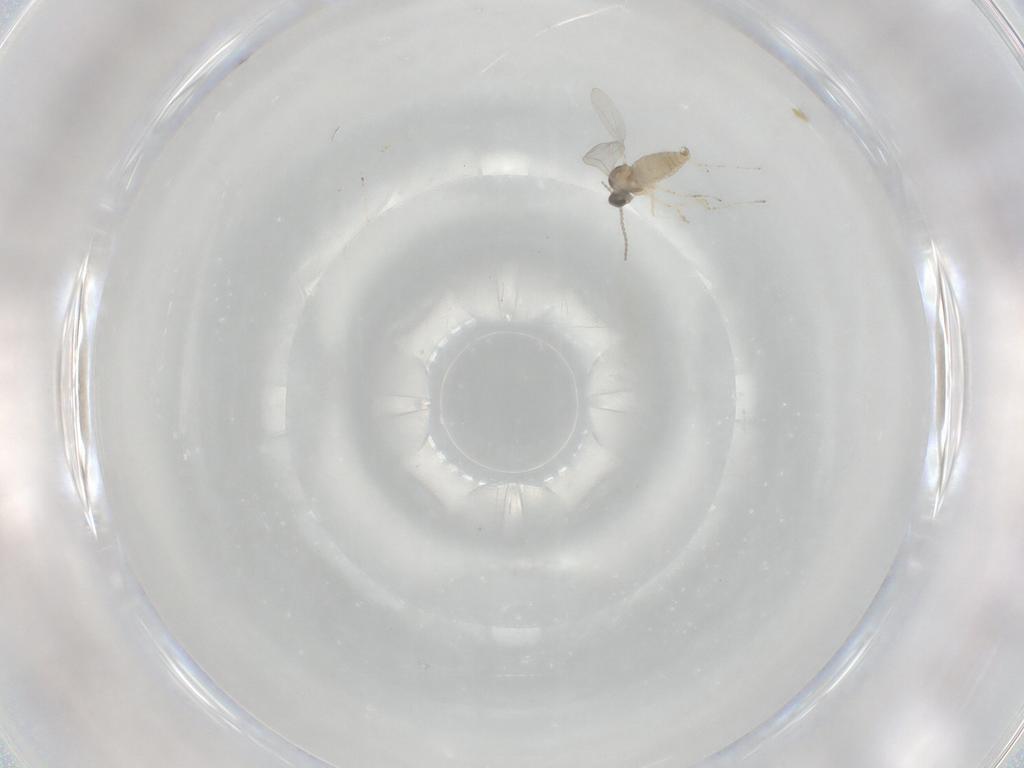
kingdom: Animalia
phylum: Arthropoda
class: Insecta
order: Diptera
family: Cecidomyiidae
